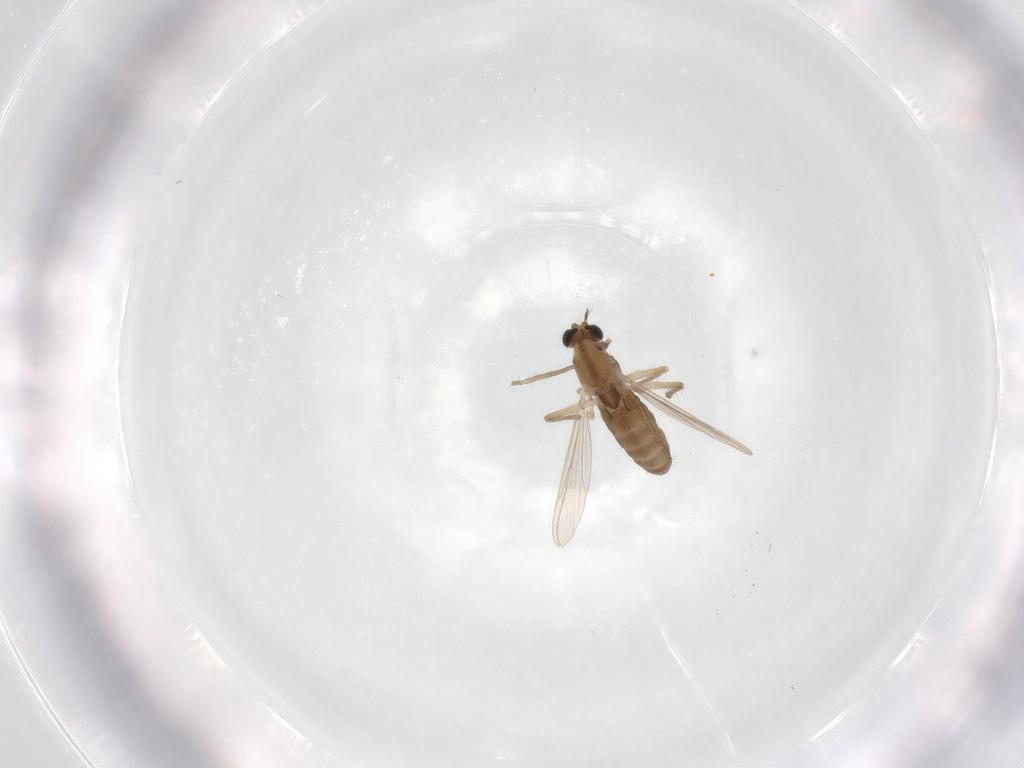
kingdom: Animalia
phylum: Arthropoda
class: Insecta
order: Diptera
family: Chironomidae
